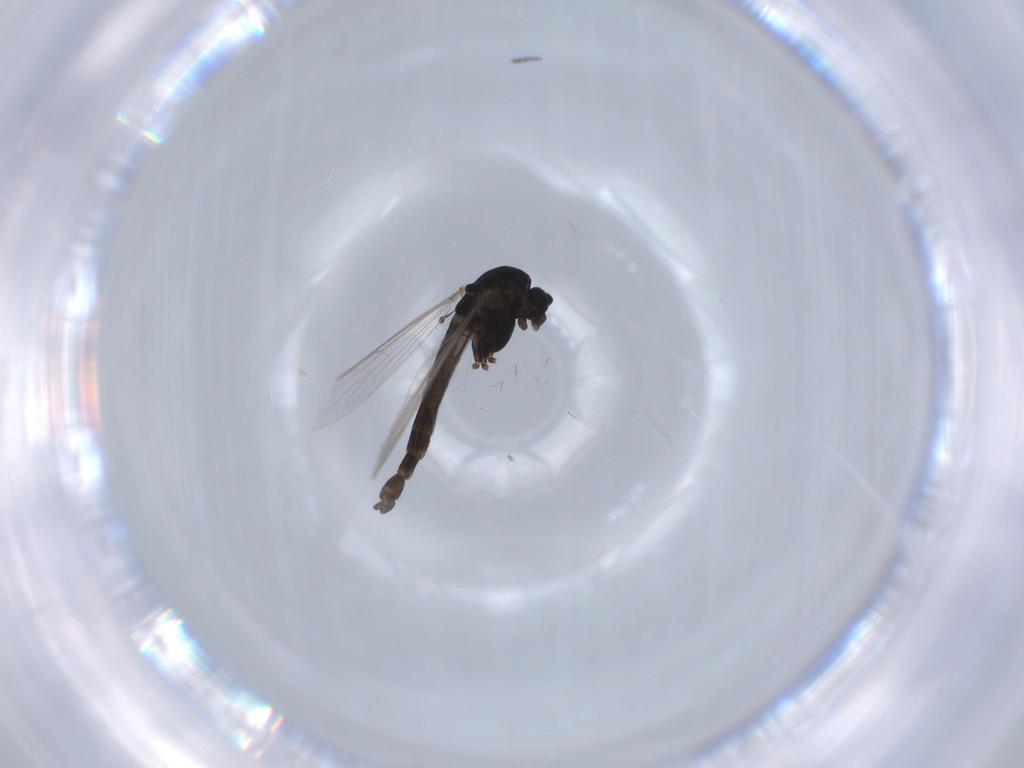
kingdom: Animalia
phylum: Arthropoda
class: Insecta
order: Diptera
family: Chironomidae
